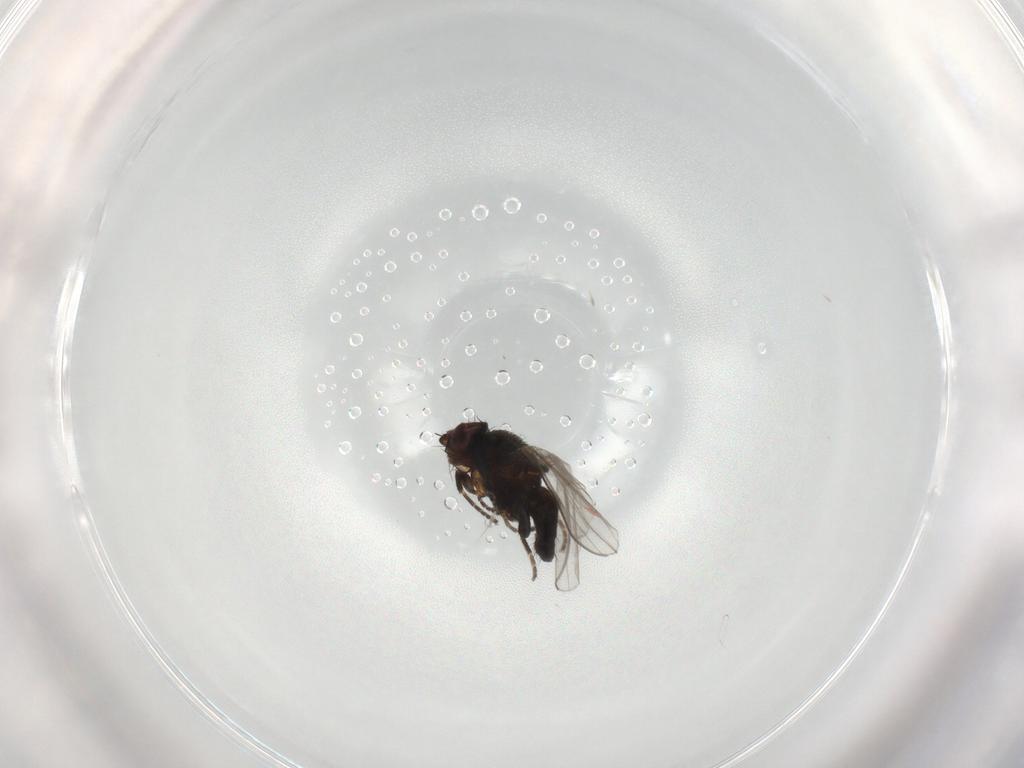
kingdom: Animalia
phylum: Arthropoda
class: Insecta
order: Diptera
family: Milichiidae
